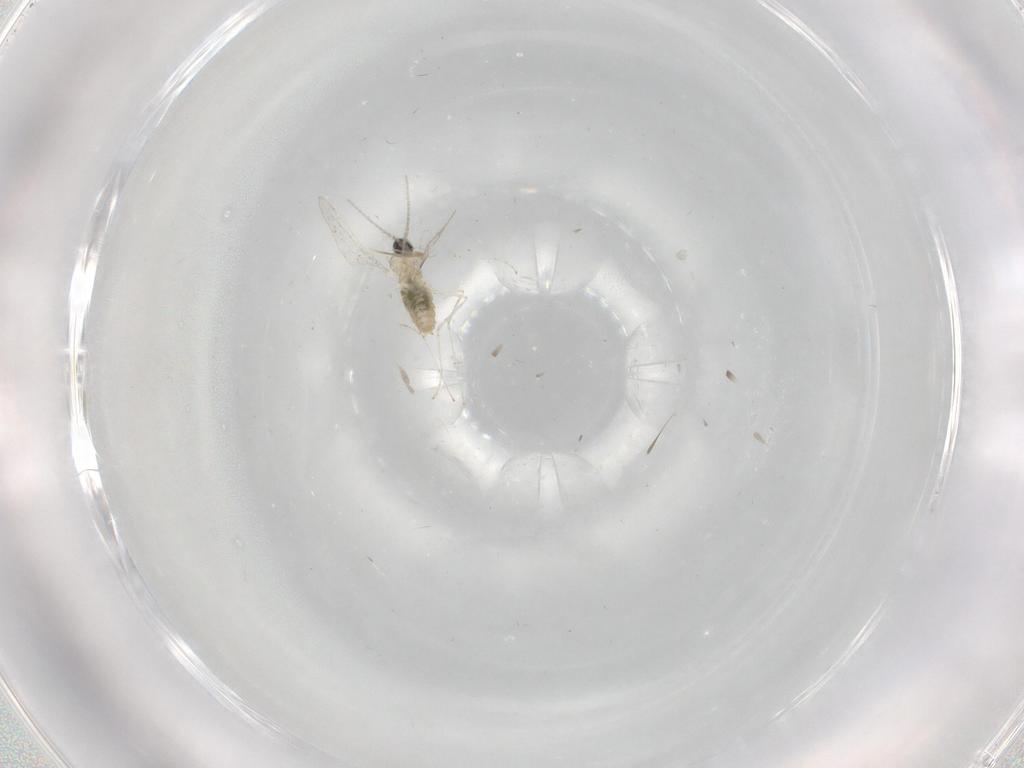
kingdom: Animalia
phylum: Arthropoda
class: Insecta
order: Diptera
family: Cecidomyiidae
